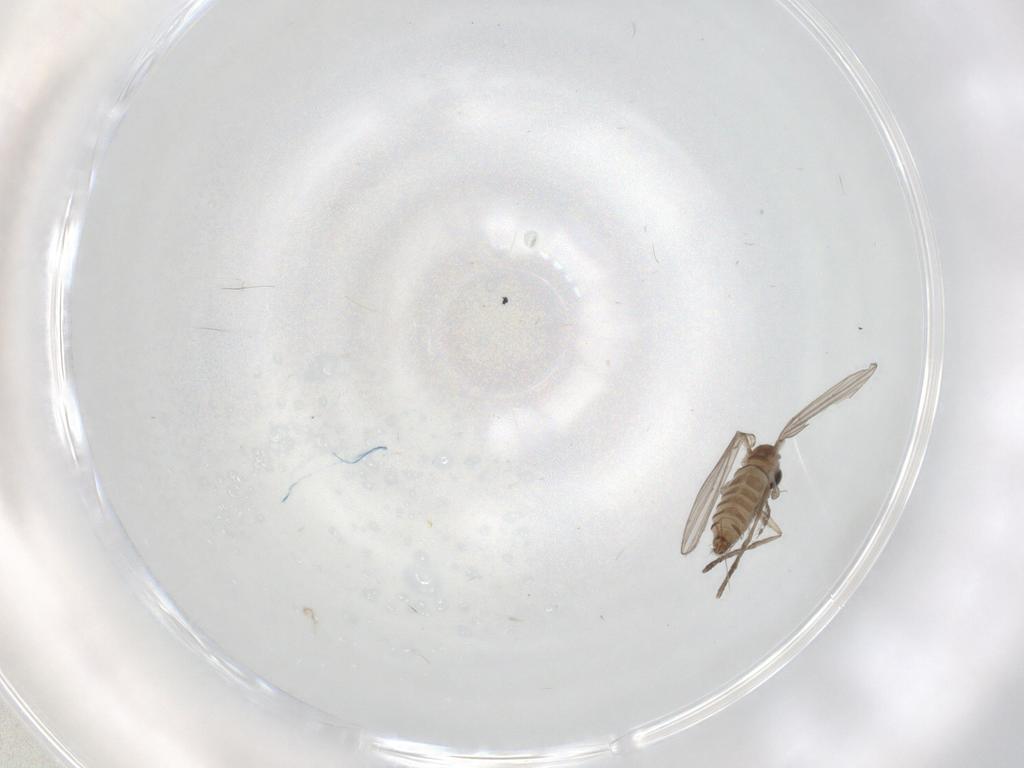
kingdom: Animalia
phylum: Arthropoda
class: Insecta
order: Diptera
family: Psychodidae
